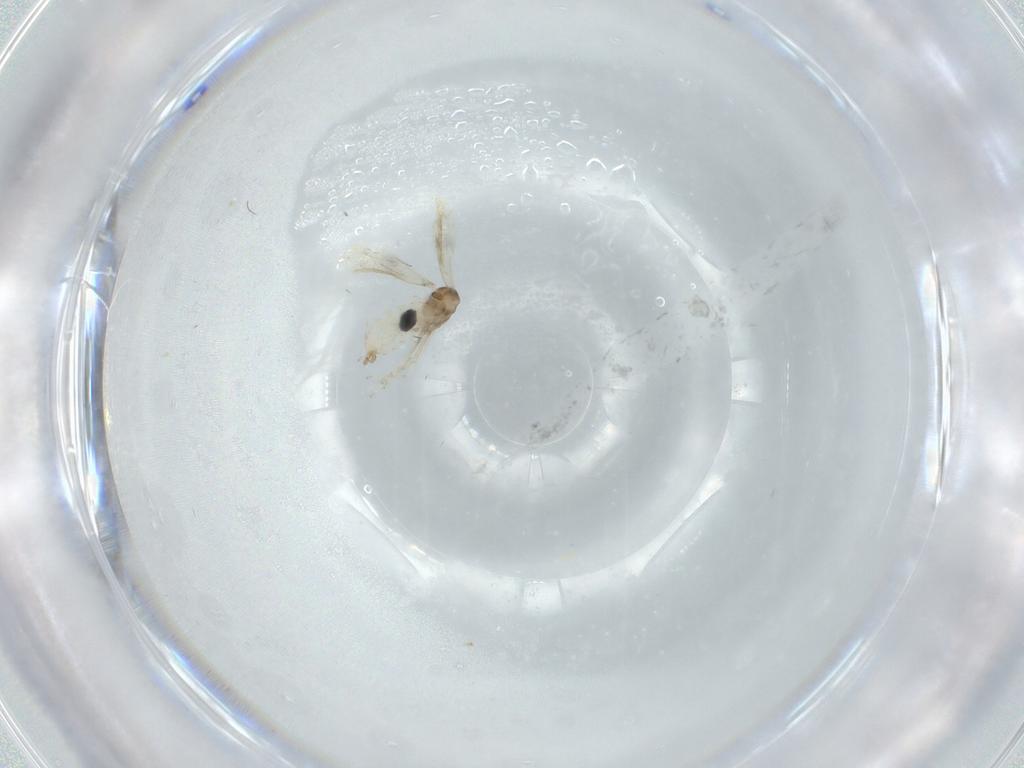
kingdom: Animalia
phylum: Arthropoda
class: Insecta
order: Diptera
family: Cecidomyiidae
